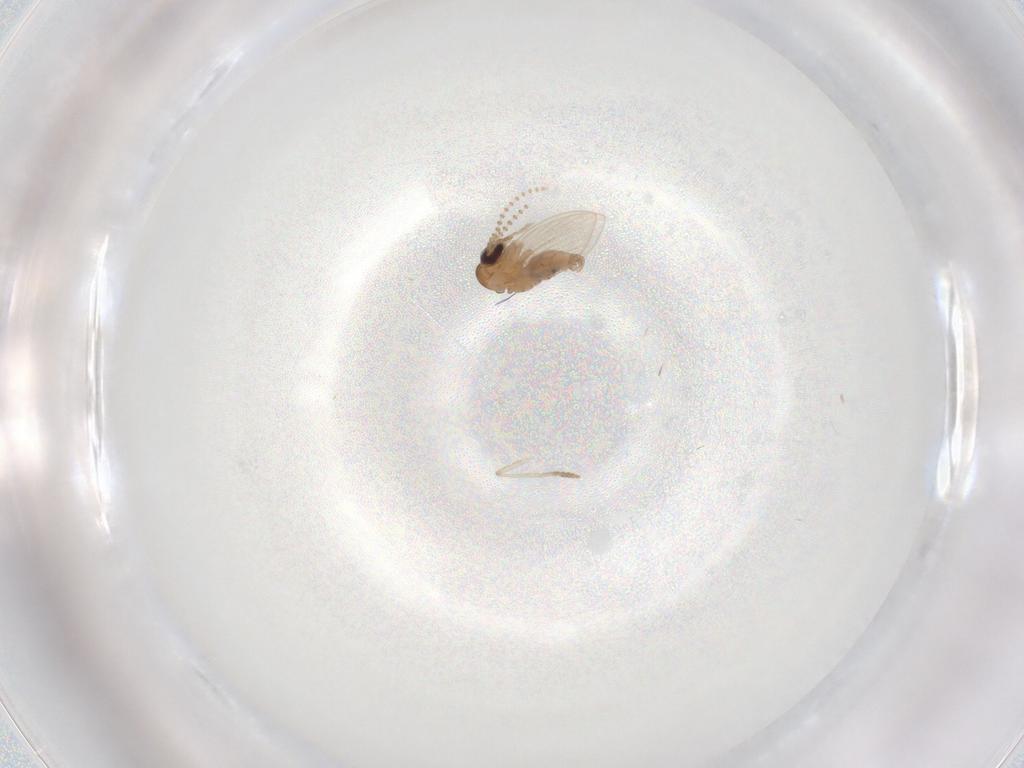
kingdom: Animalia
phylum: Arthropoda
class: Insecta
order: Diptera
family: Psychodidae
